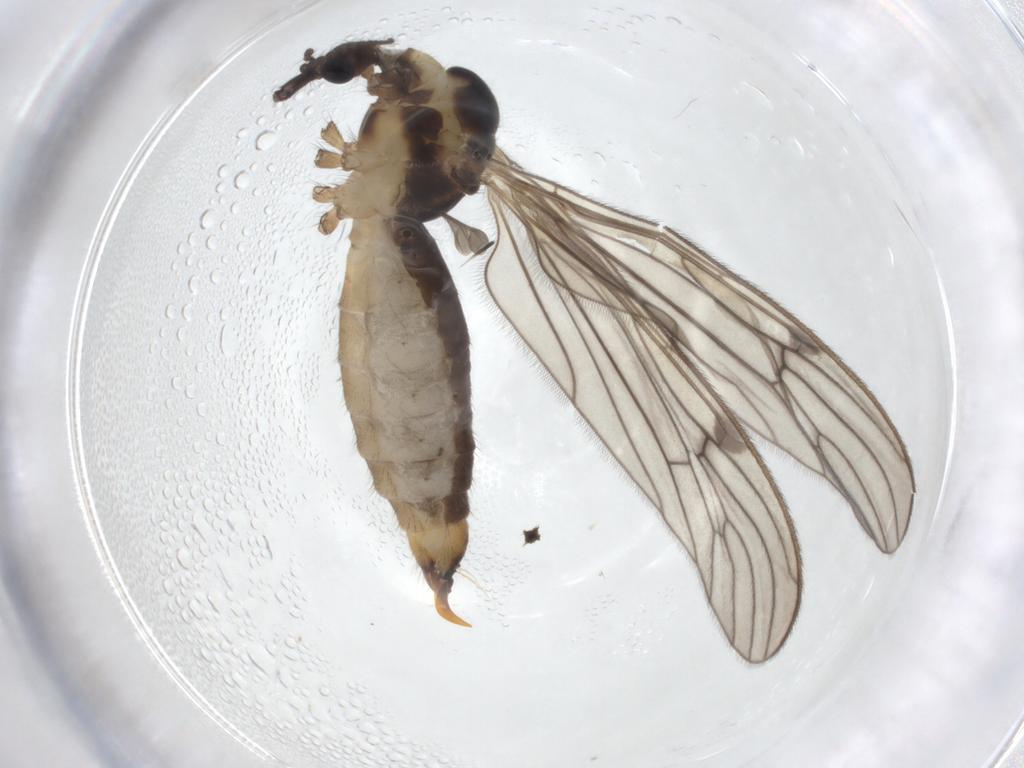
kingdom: Animalia
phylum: Arthropoda
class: Insecta
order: Diptera
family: Limoniidae
